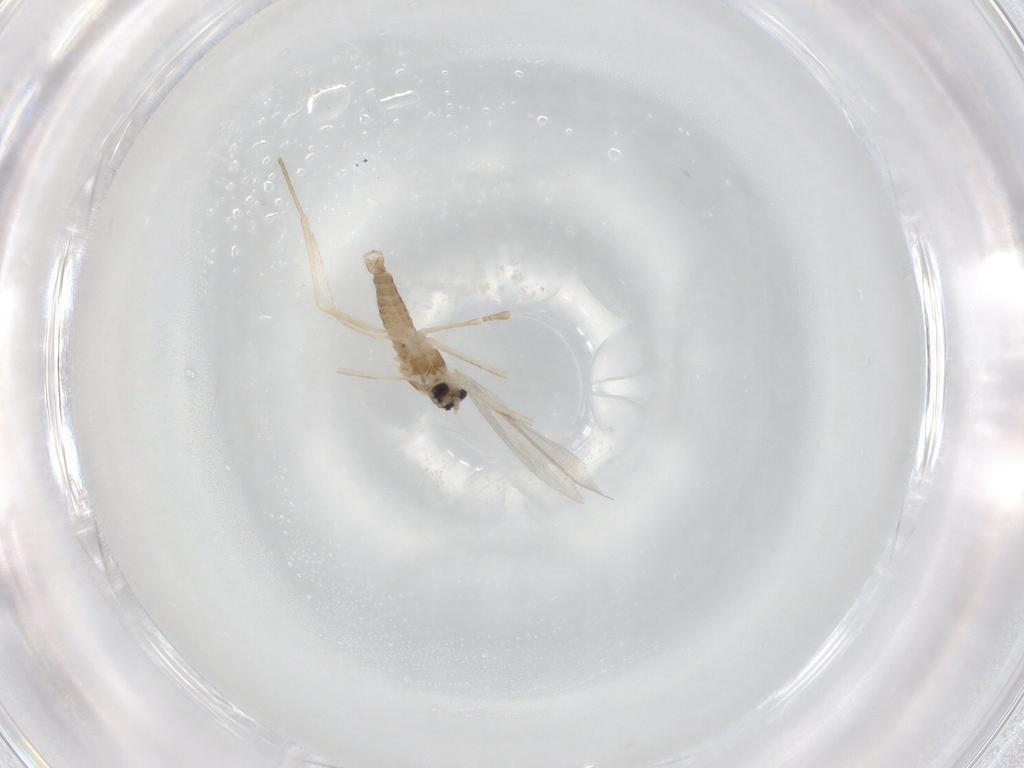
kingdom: Animalia
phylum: Arthropoda
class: Insecta
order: Diptera
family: Cecidomyiidae
